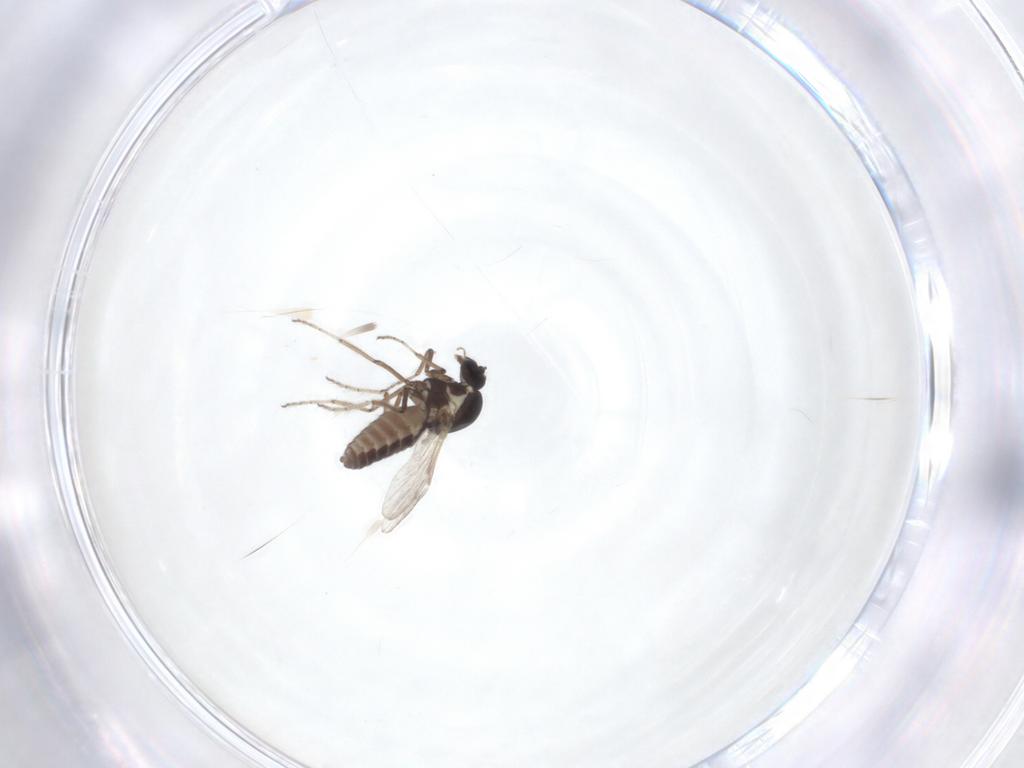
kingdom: Animalia
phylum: Arthropoda
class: Insecta
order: Diptera
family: Ceratopogonidae
